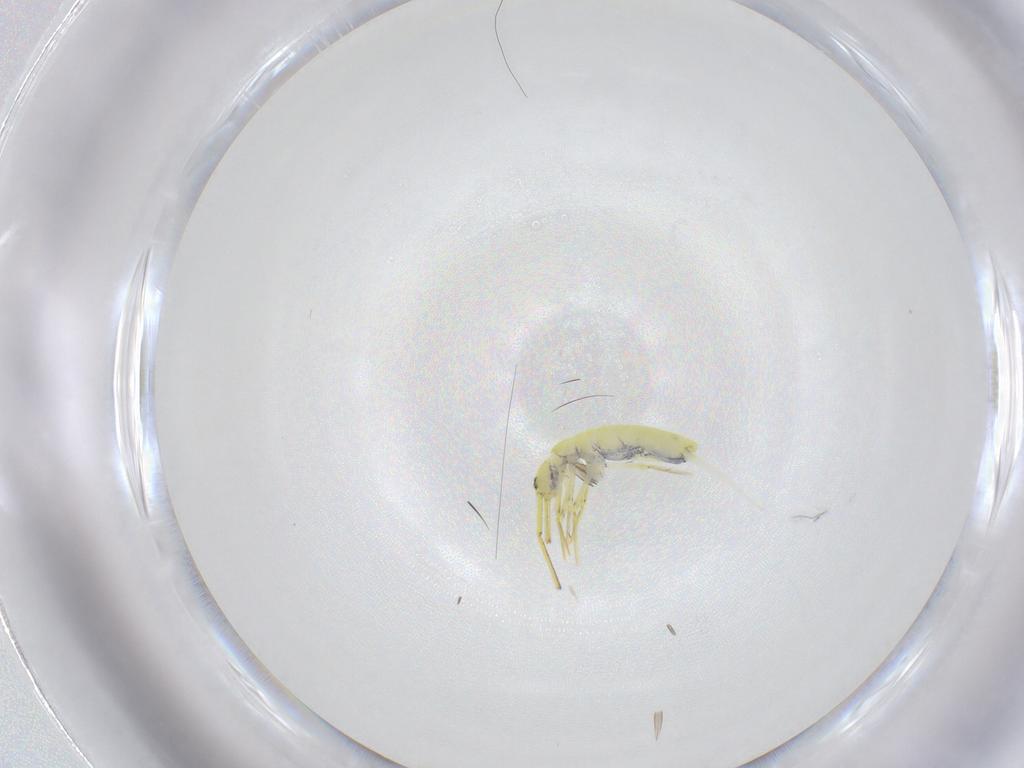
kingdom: Animalia
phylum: Arthropoda
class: Collembola
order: Entomobryomorpha
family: Entomobryidae
